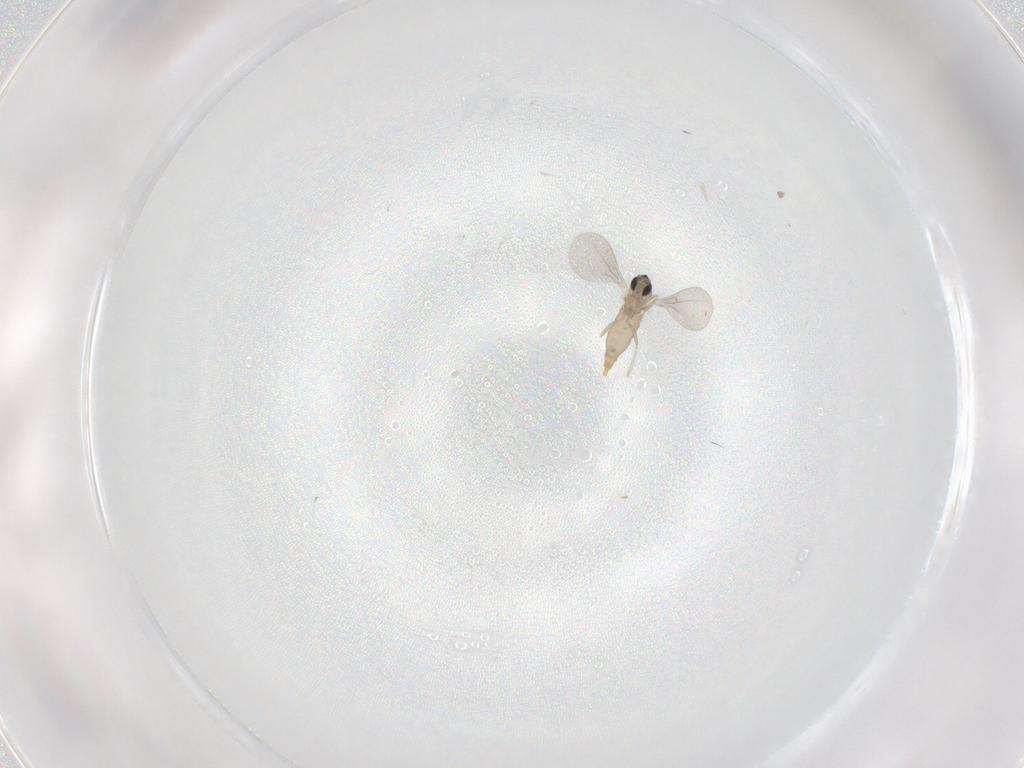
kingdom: Animalia
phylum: Arthropoda
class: Insecta
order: Diptera
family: Cecidomyiidae
